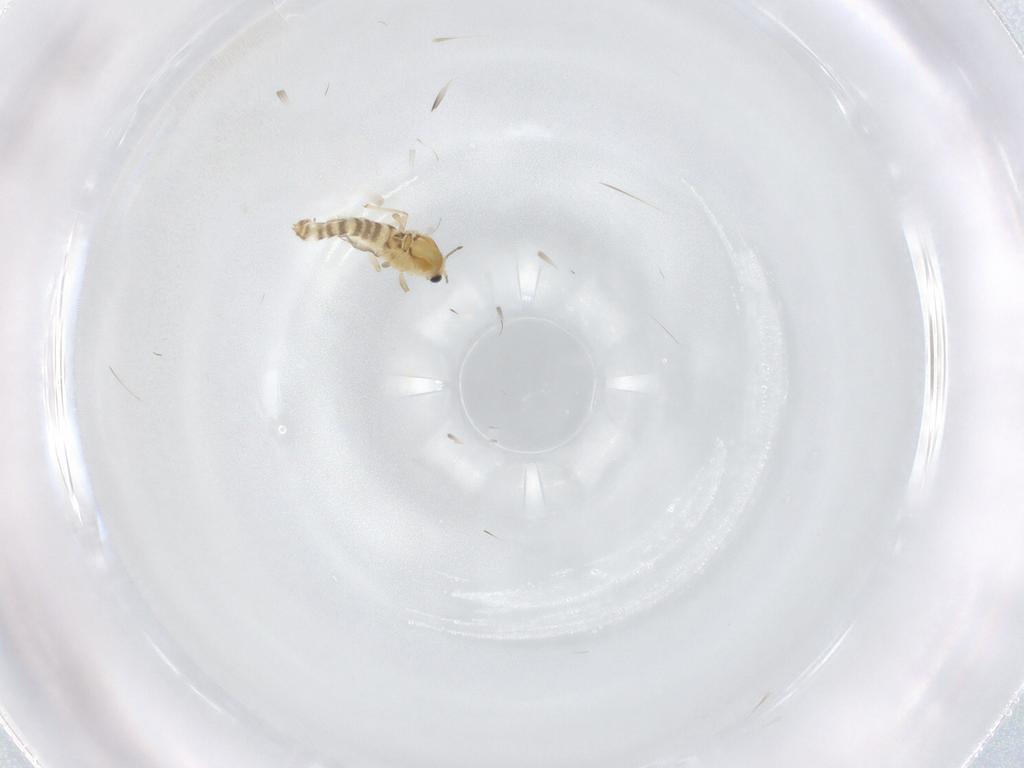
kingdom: Animalia
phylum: Arthropoda
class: Insecta
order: Diptera
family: Chironomidae
